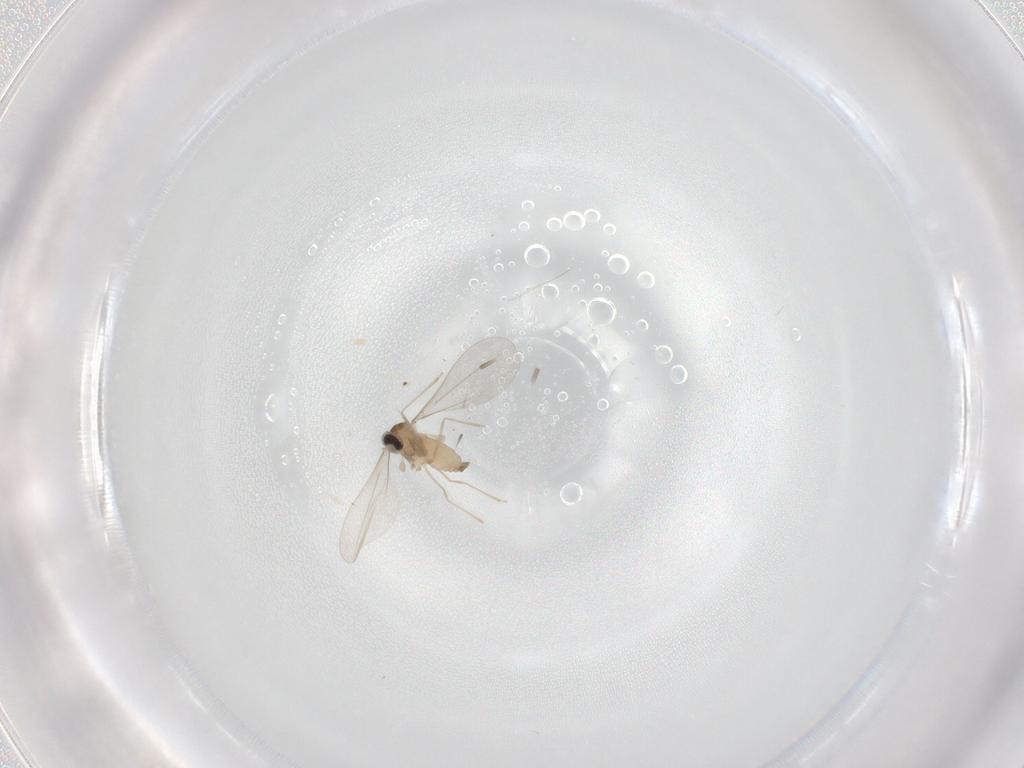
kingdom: Animalia
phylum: Arthropoda
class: Insecta
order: Diptera
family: Cecidomyiidae
